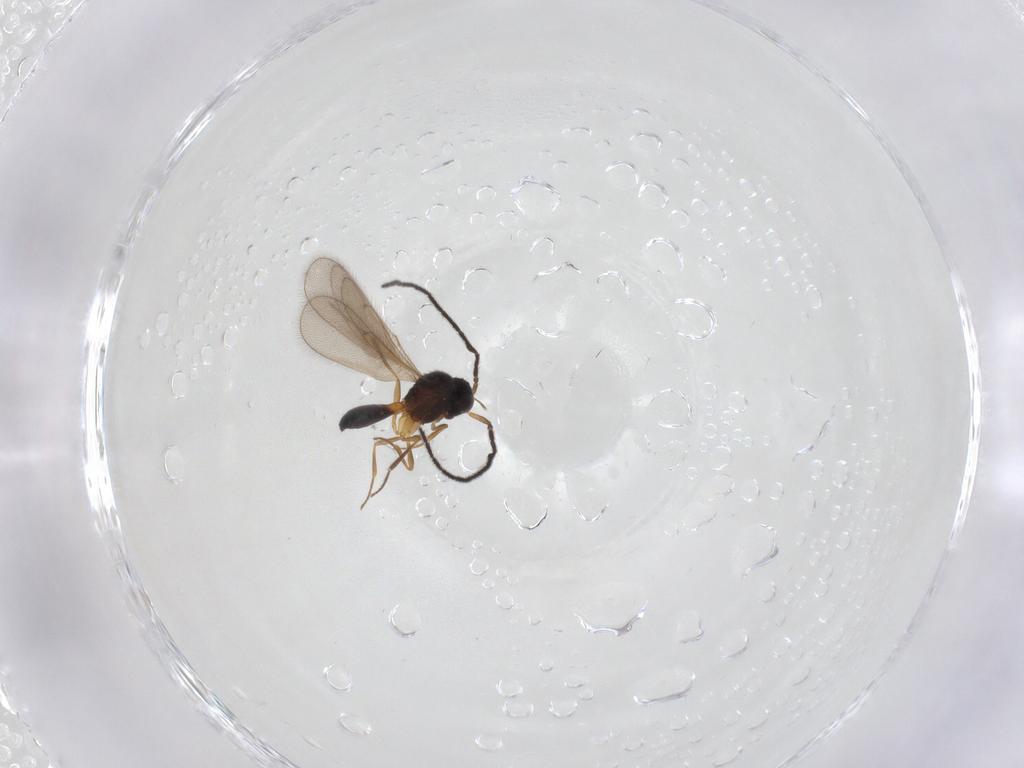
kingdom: Animalia
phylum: Arthropoda
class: Insecta
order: Hymenoptera
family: Scelionidae
